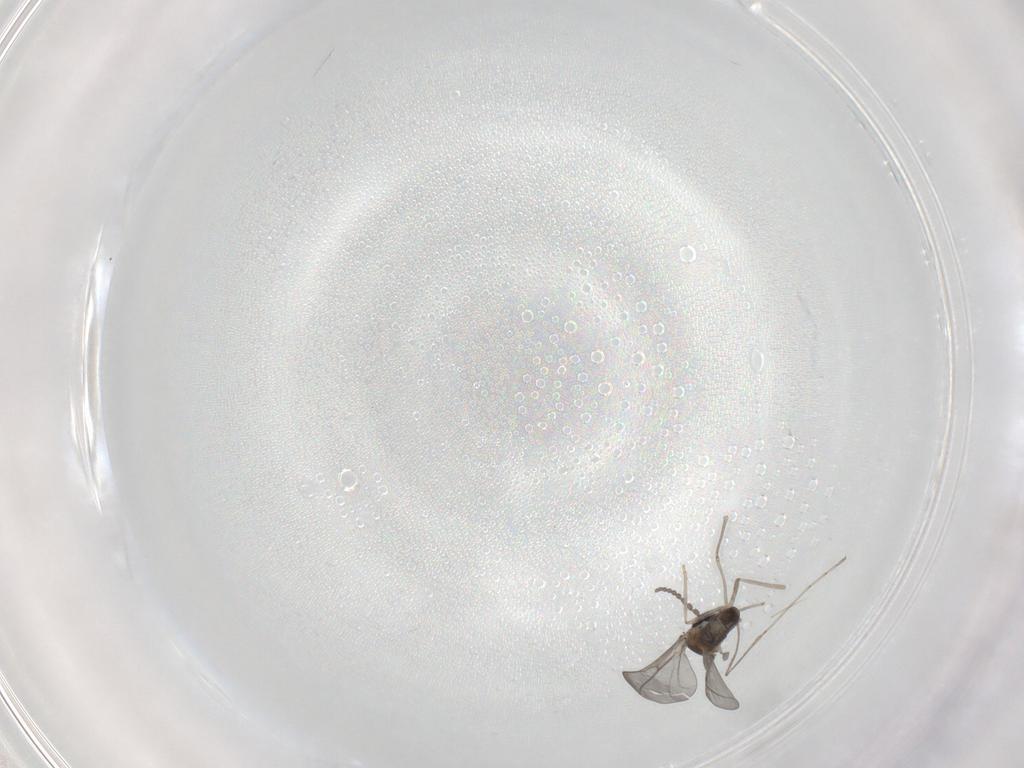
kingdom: Animalia
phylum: Arthropoda
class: Insecta
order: Diptera
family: Cecidomyiidae
